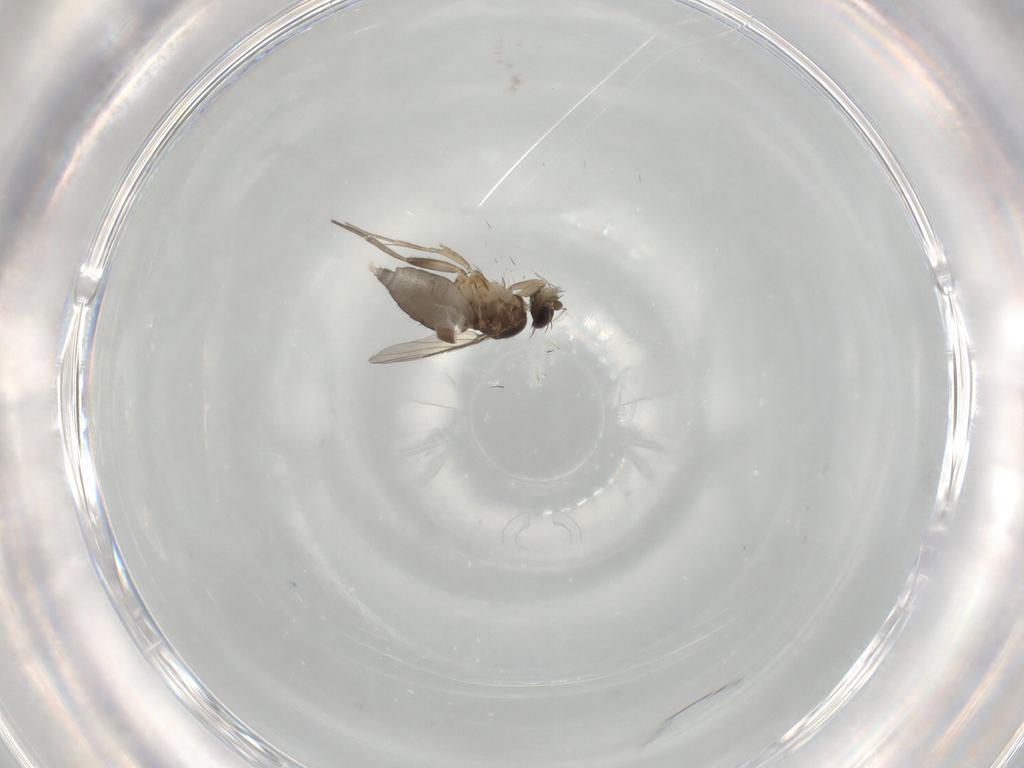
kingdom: Animalia
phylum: Arthropoda
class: Insecta
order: Diptera
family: Phoridae
